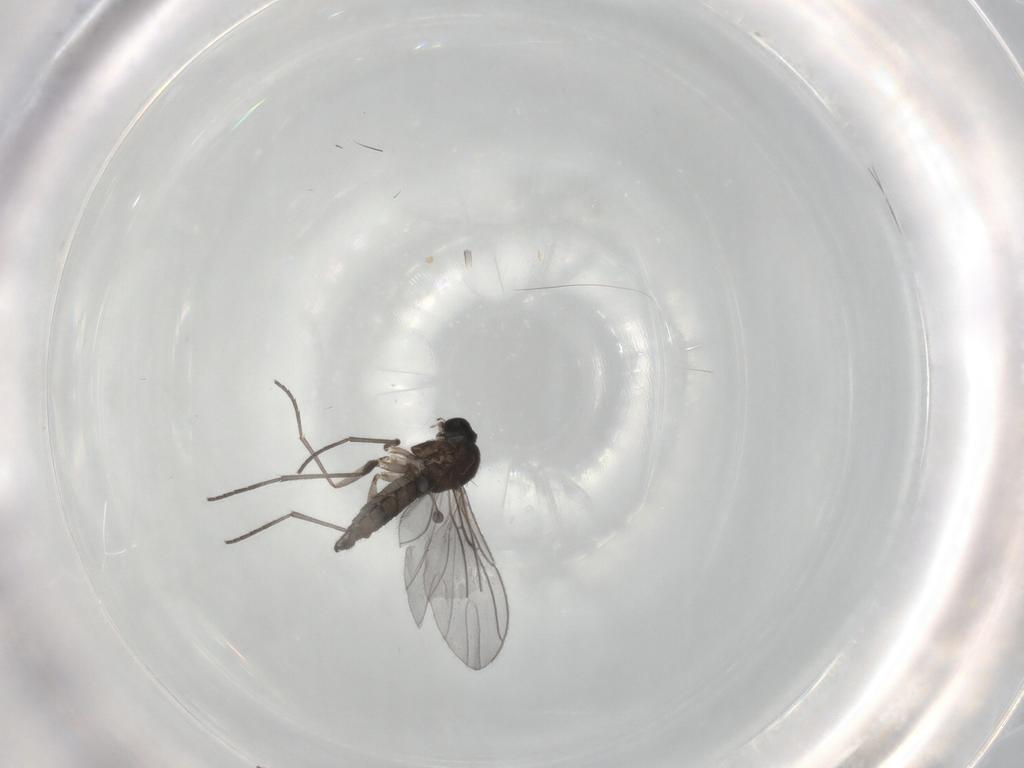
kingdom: Animalia
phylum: Arthropoda
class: Insecta
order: Diptera
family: Sciaridae
